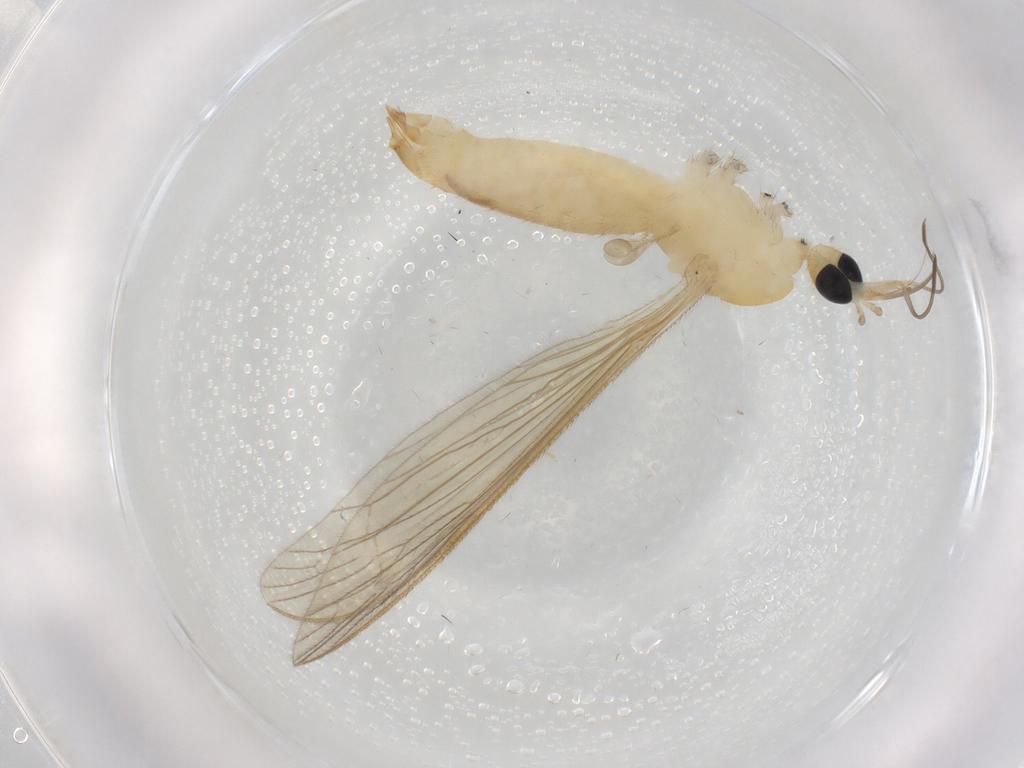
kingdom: Animalia
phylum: Arthropoda
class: Insecta
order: Diptera
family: Limoniidae
